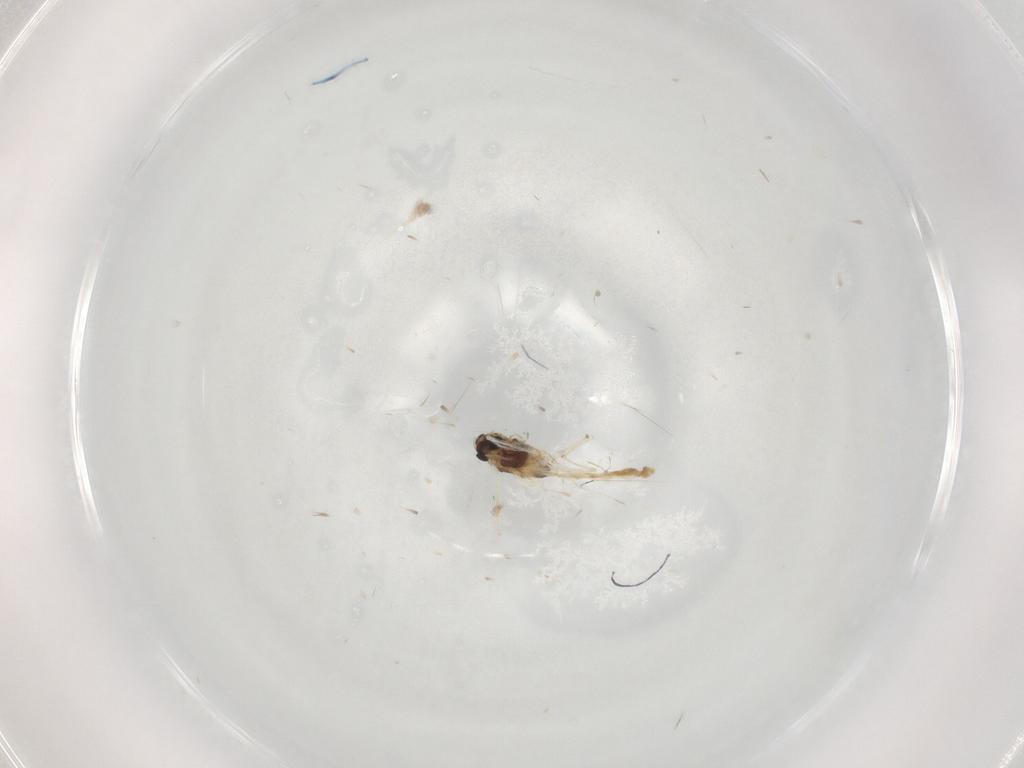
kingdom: Animalia
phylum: Arthropoda
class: Insecta
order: Diptera
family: Chironomidae
